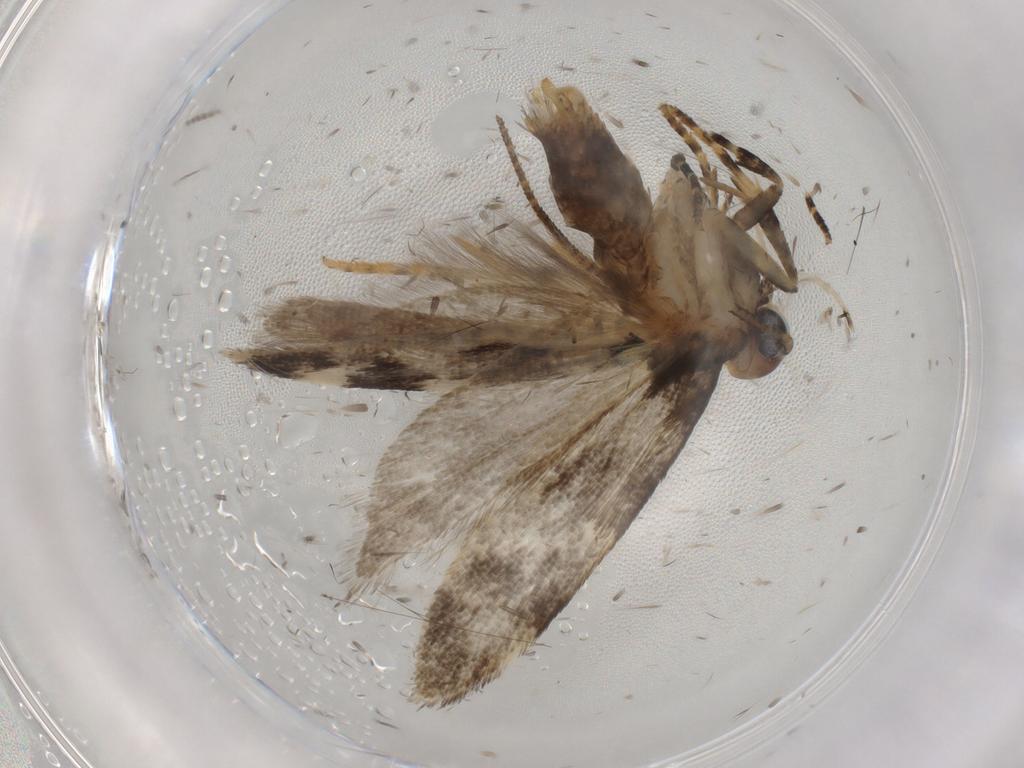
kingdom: Animalia
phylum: Arthropoda
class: Insecta
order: Lepidoptera
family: Gelechiidae
